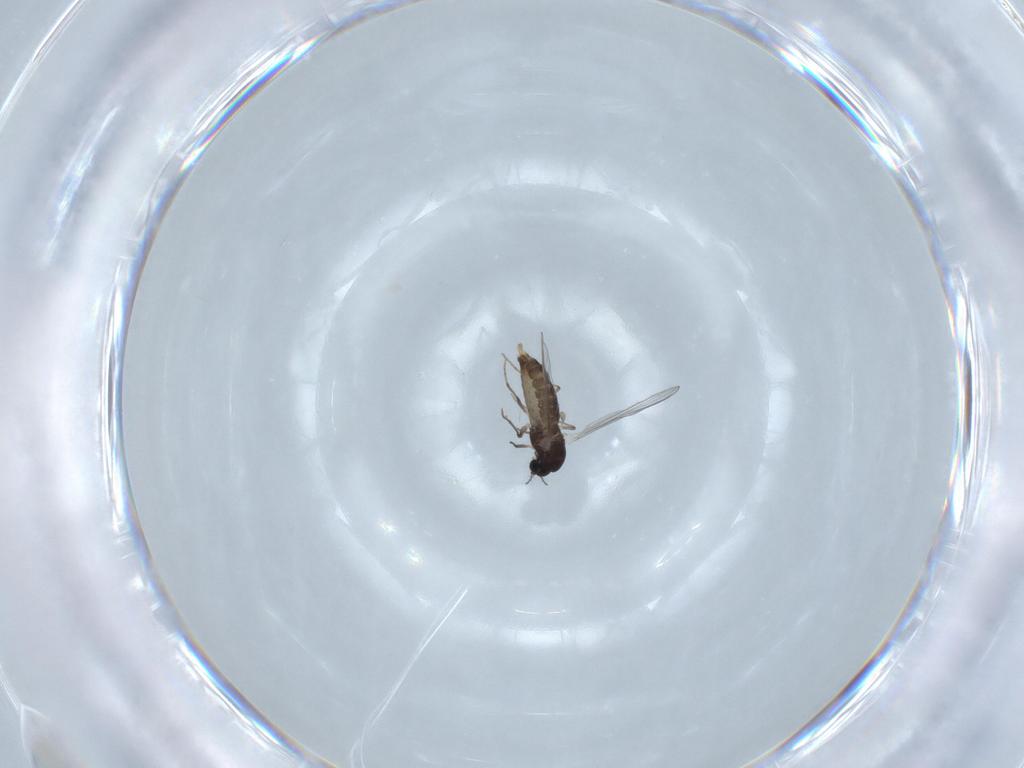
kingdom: Animalia
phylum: Arthropoda
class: Insecta
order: Diptera
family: Chironomidae
